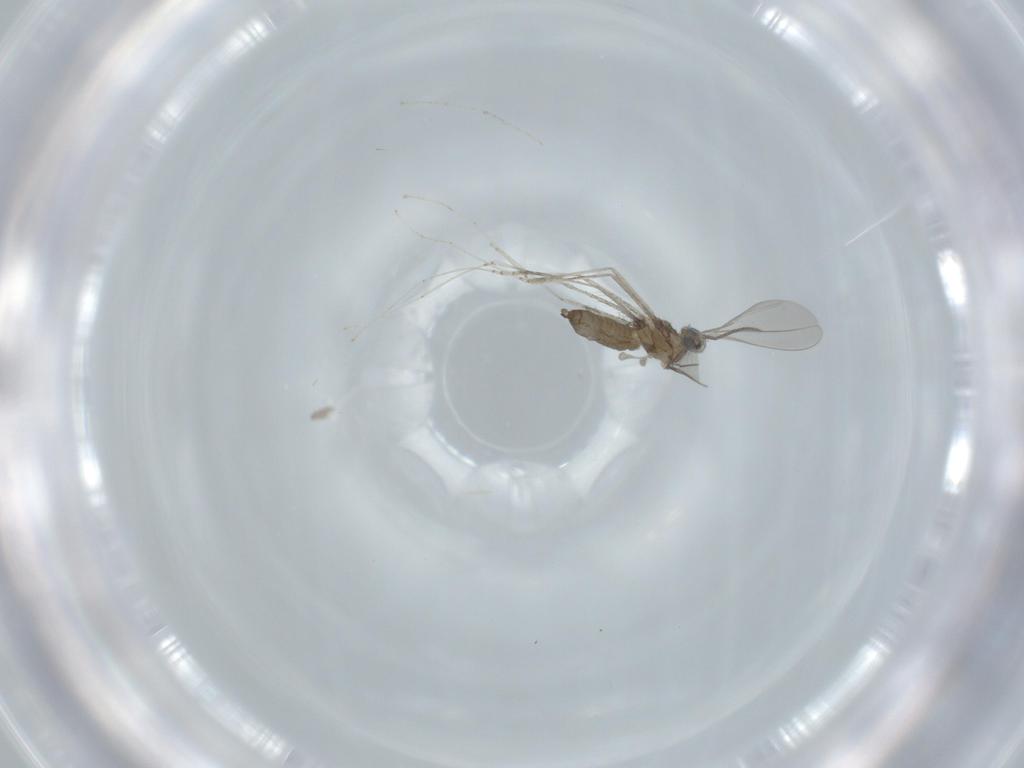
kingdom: Animalia
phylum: Arthropoda
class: Insecta
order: Diptera
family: Cecidomyiidae
